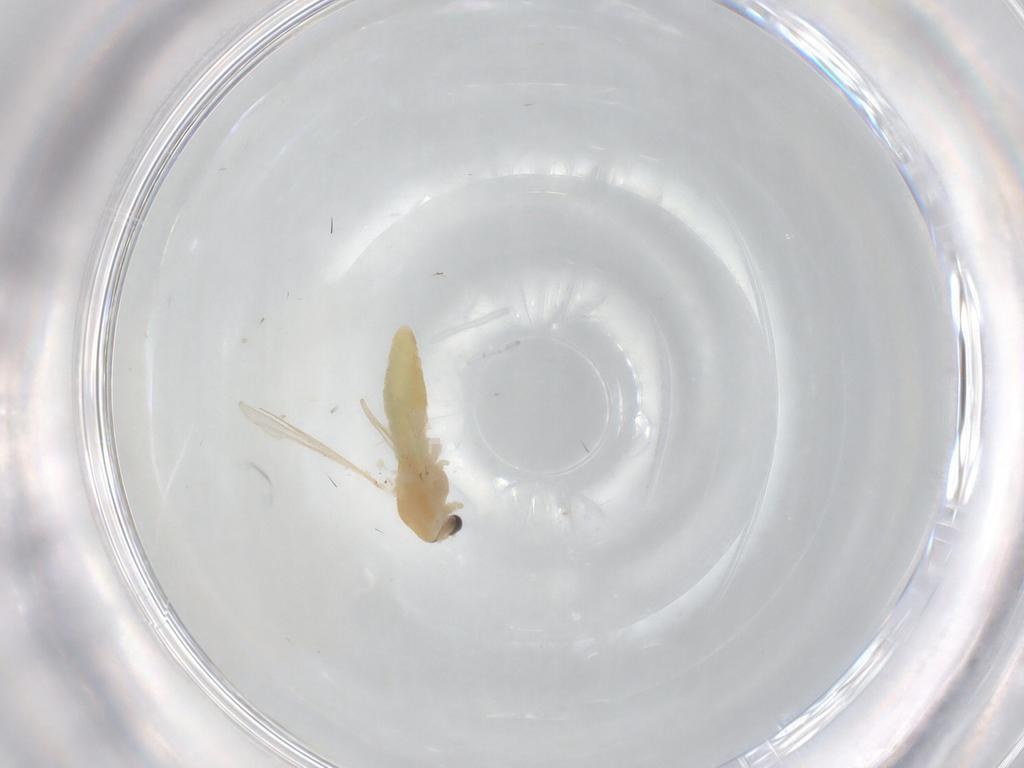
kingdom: Animalia
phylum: Arthropoda
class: Insecta
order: Diptera
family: Chironomidae
